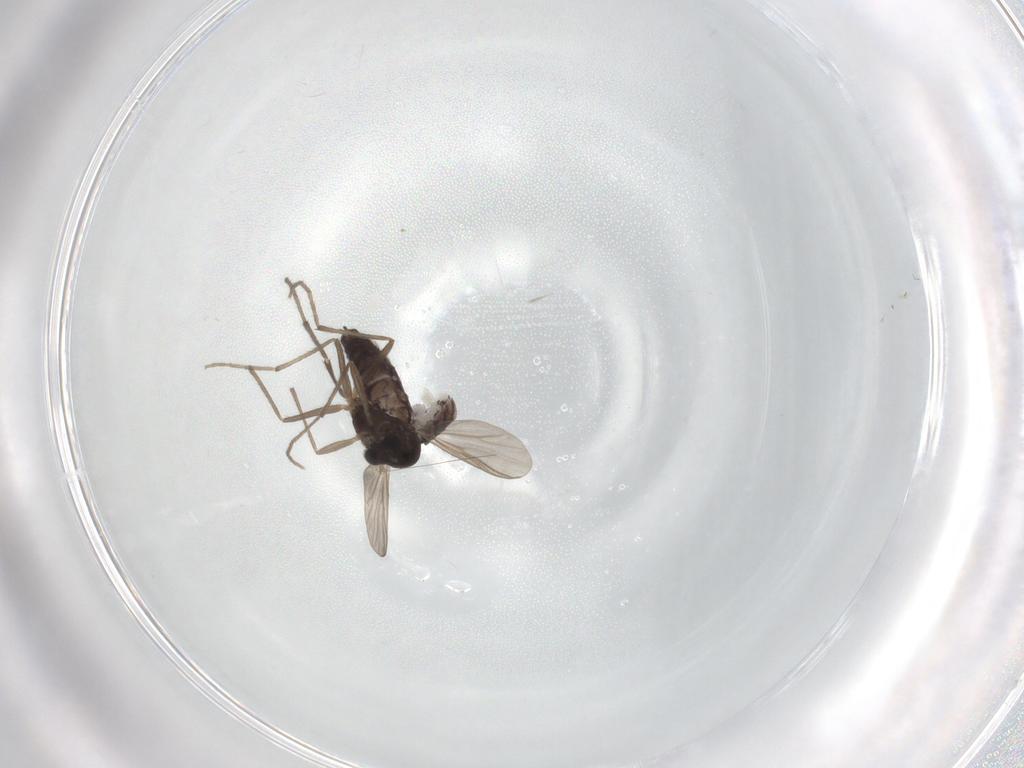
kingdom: Animalia
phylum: Arthropoda
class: Insecta
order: Diptera
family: Chironomidae
